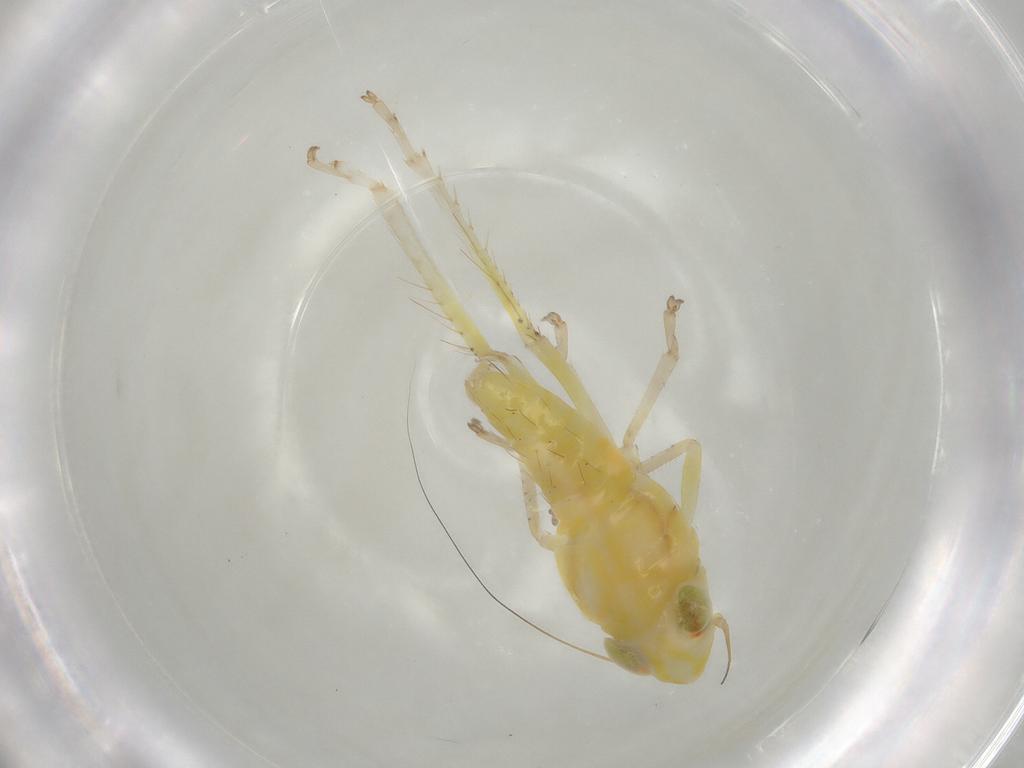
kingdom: Animalia
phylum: Arthropoda
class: Insecta
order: Hemiptera
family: Cicadellidae
